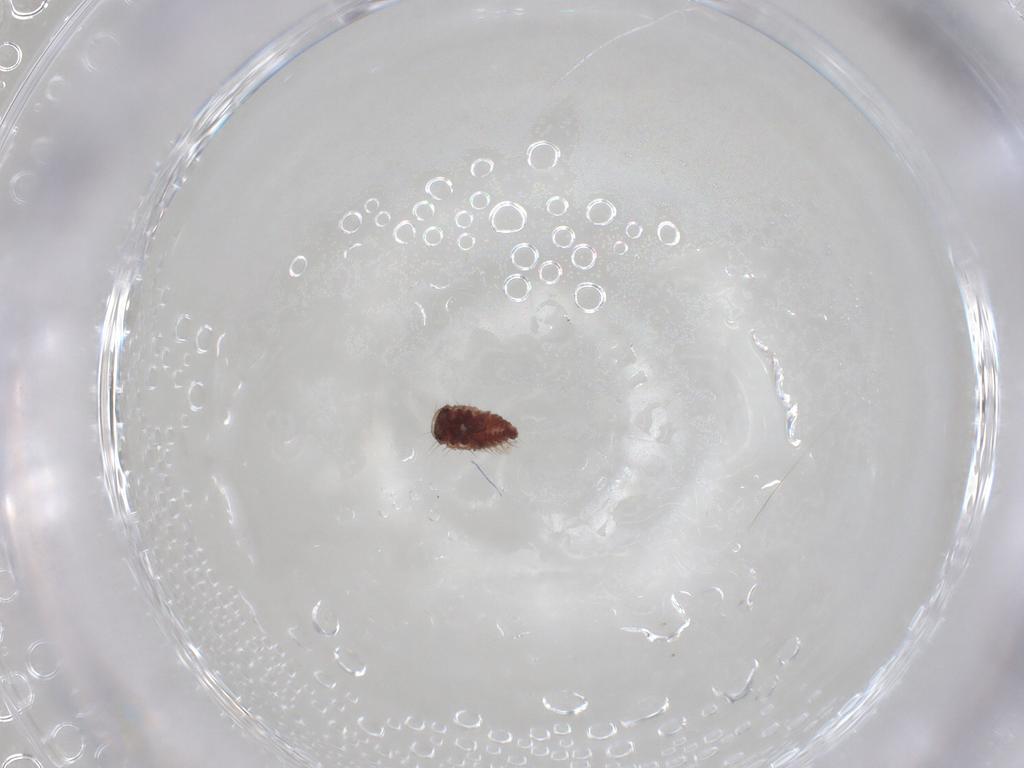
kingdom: Animalia
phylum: Arthropoda
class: Insecta
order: Coleoptera
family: Coccinellidae
